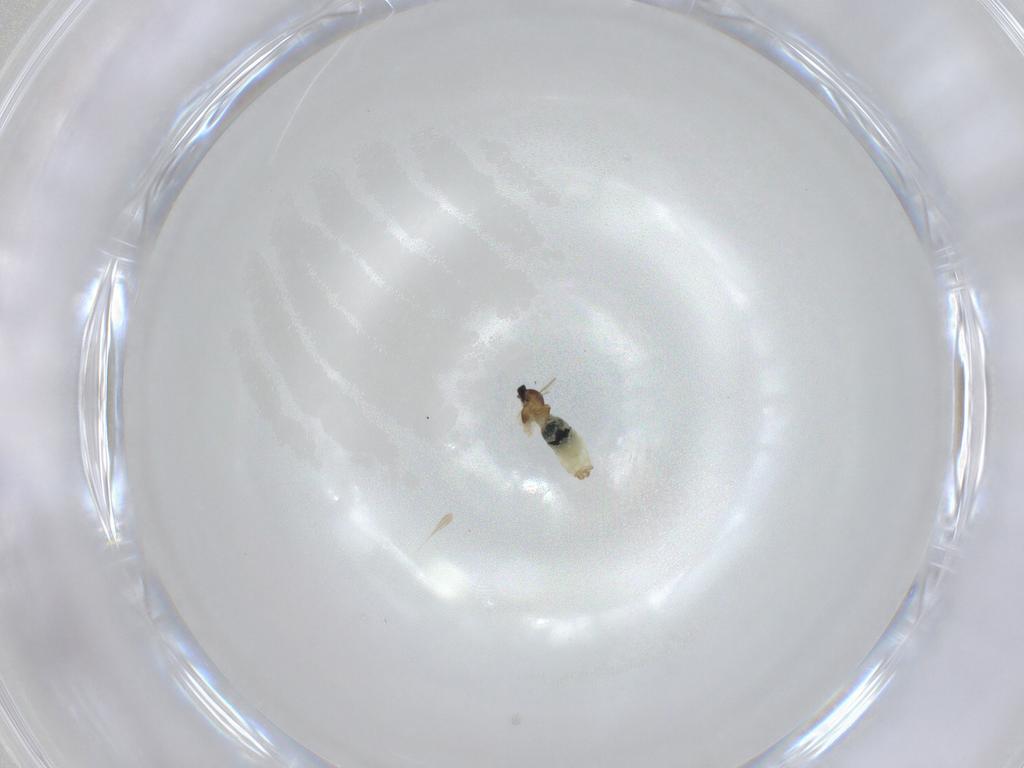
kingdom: Animalia
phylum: Arthropoda
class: Insecta
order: Diptera
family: Cecidomyiidae
